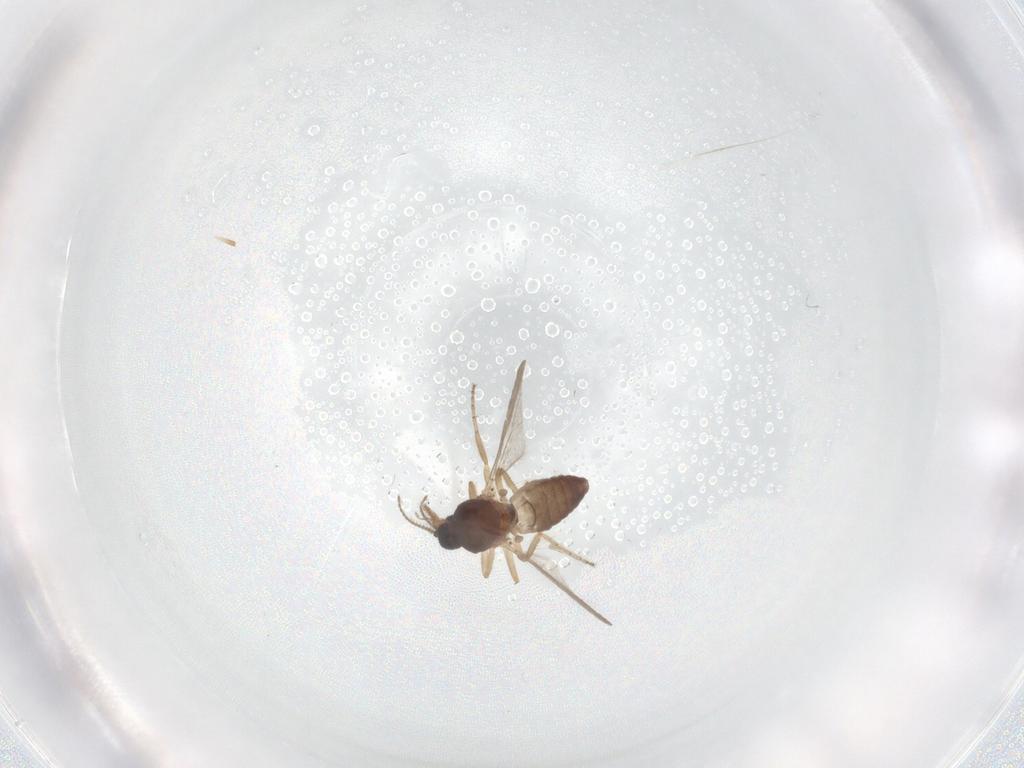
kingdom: Animalia
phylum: Arthropoda
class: Insecta
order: Diptera
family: Ceratopogonidae
